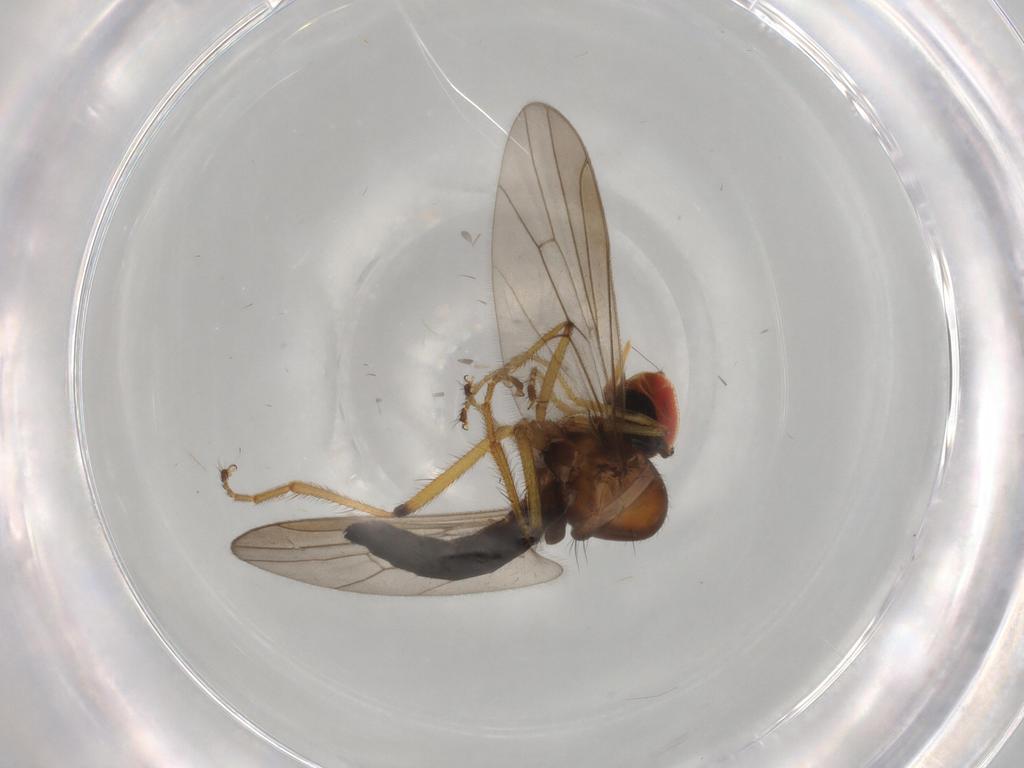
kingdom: Animalia
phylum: Arthropoda
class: Insecta
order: Diptera
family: Hybotidae
